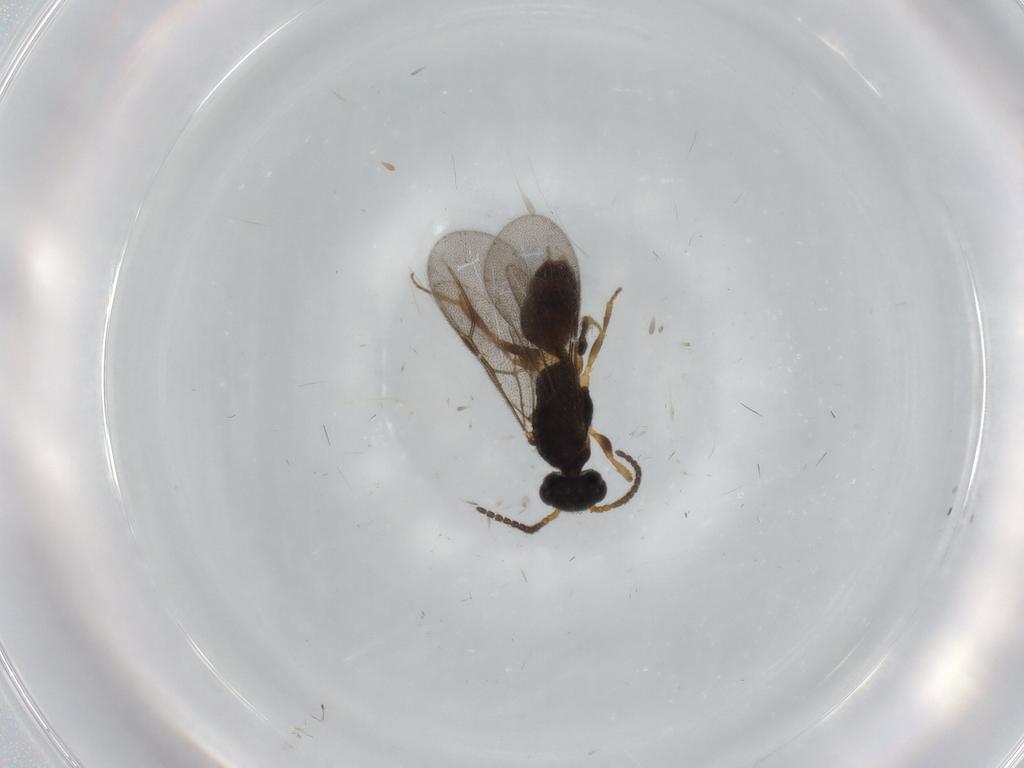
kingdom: Animalia
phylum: Arthropoda
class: Insecta
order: Hymenoptera
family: Bethylidae
